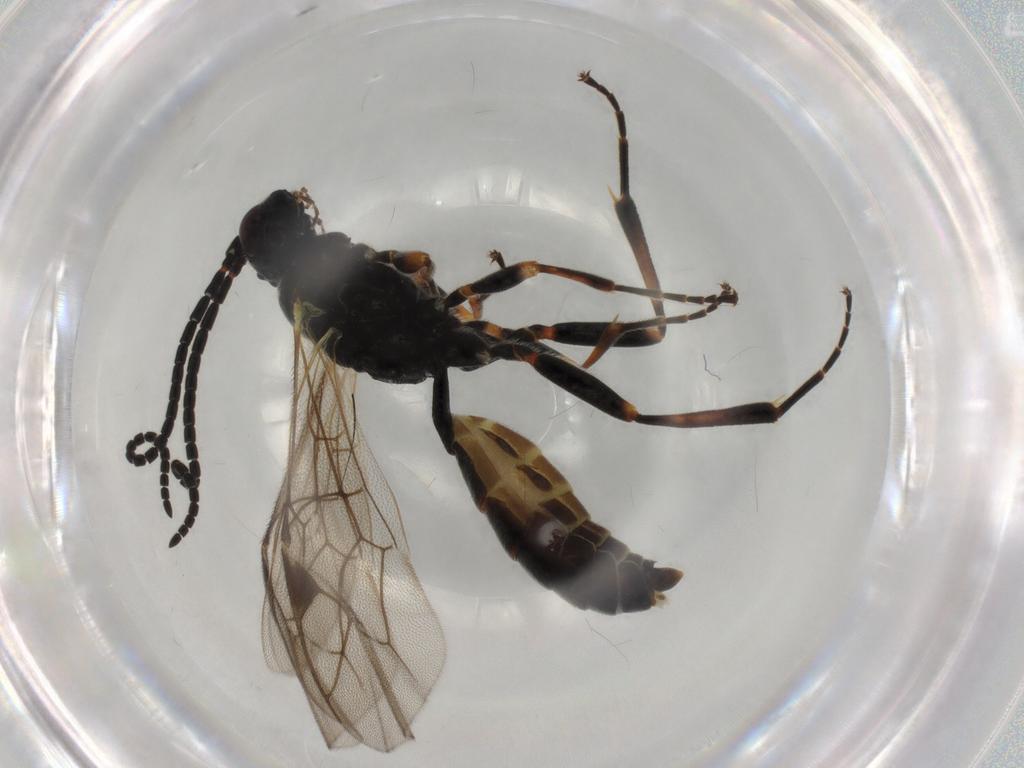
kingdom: Animalia
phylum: Arthropoda
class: Insecta
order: Hymenoptera
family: Ichneumonidae
